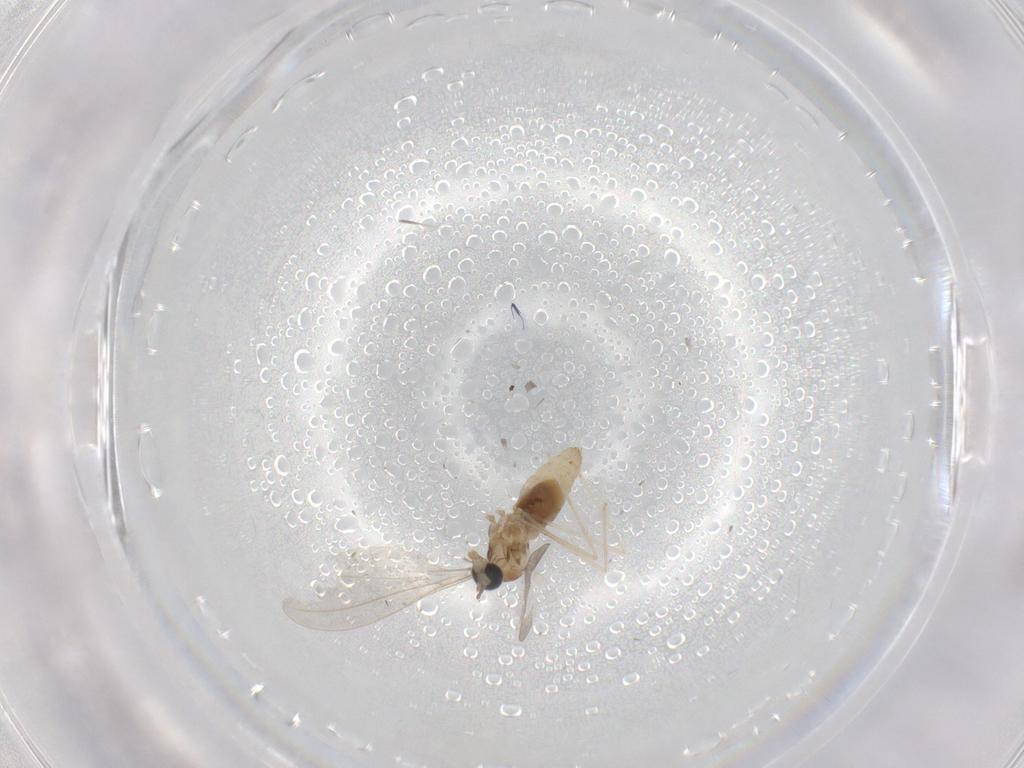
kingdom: Animalia
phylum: Arthropoda
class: Insecta
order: Diptera
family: Cecidomyiidae
